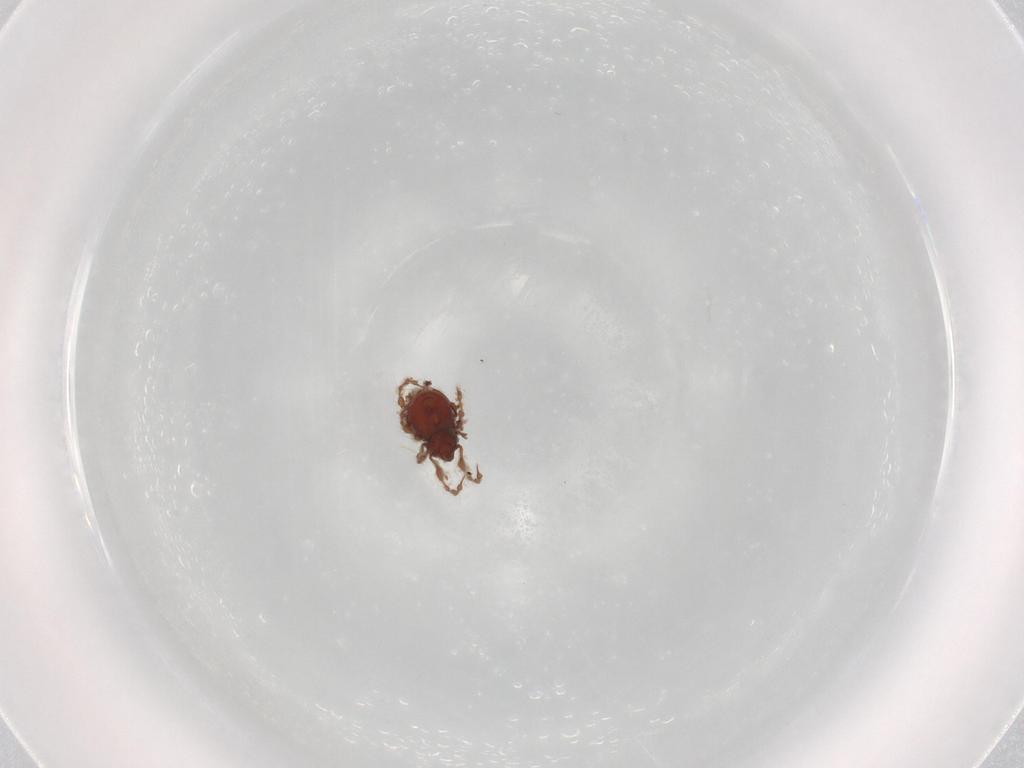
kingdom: Animalia
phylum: Arthropoda
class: Arachnida
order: Sarcoptiformes
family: Damaeidae
